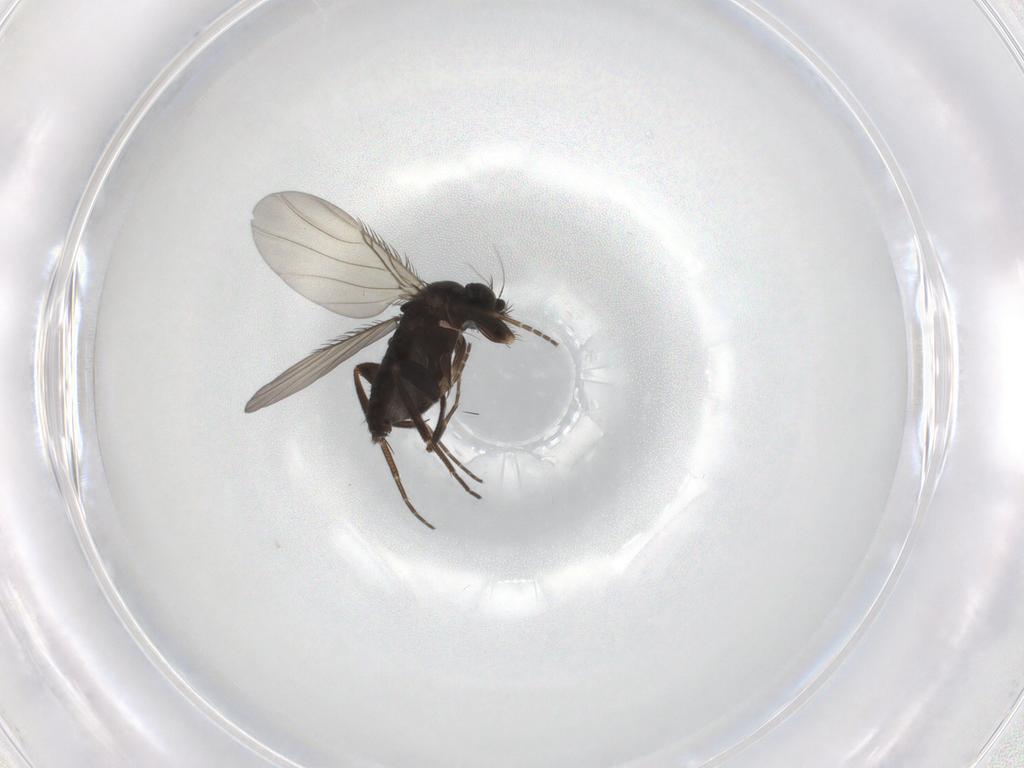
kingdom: Animalia
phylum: Arthropoda
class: Insecta
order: Diptera
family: Phoridae
